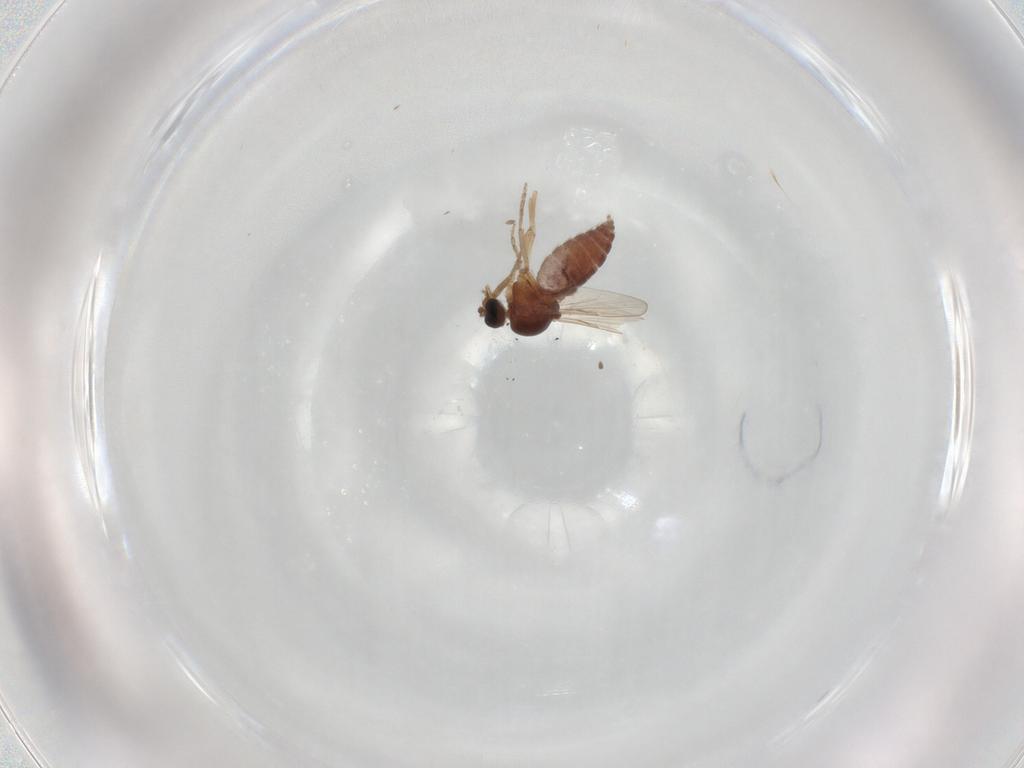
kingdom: Animalia
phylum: Arthropoda
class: Insecta
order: Diptera
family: Ceratopogonidae
